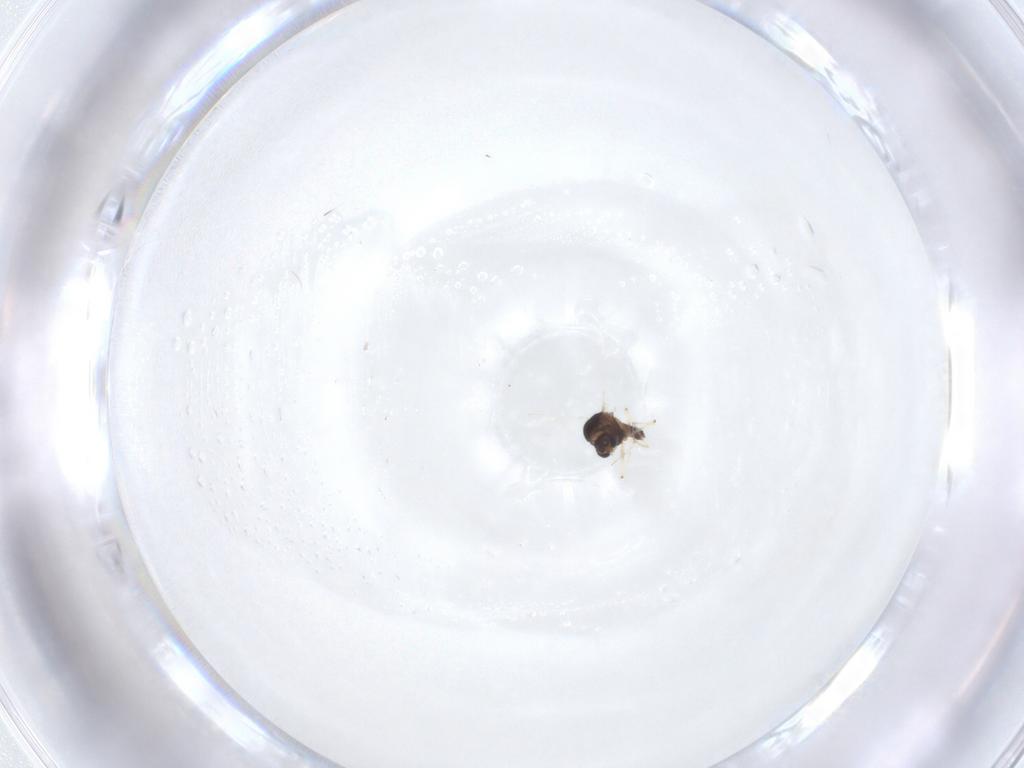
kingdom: Animalia
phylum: Arthropoda
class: Insecta
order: Diptera
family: Chironomidae
